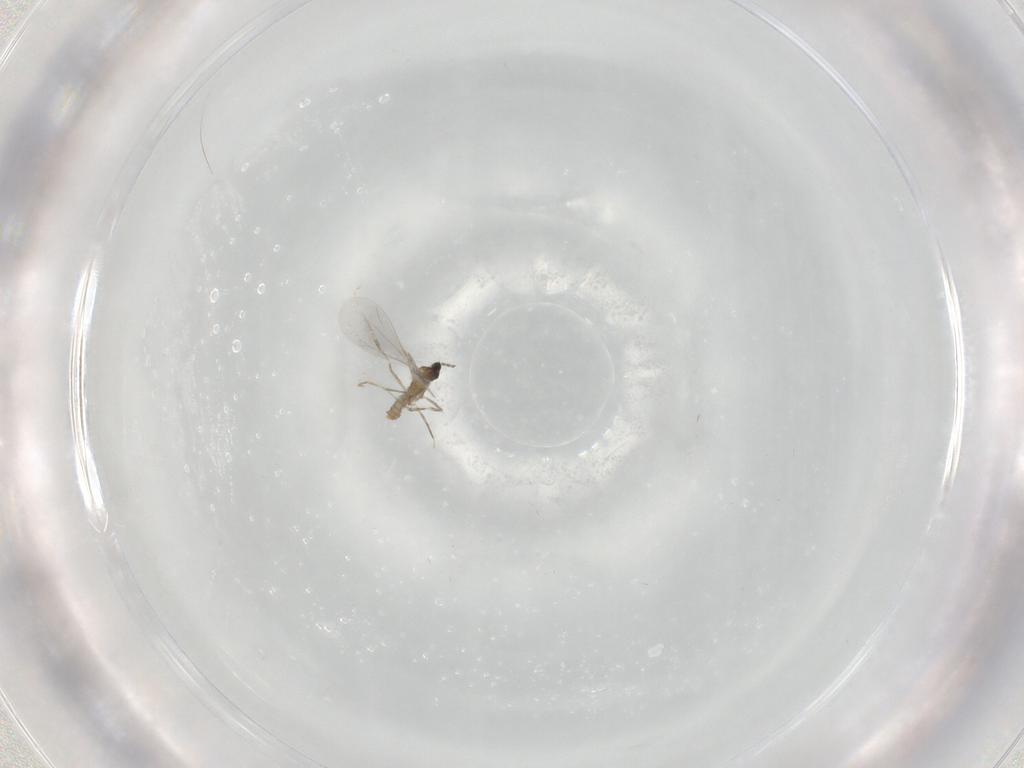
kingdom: Animalia
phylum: Arthropoda
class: Insecta
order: Diptera
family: Cecidomyiidae
